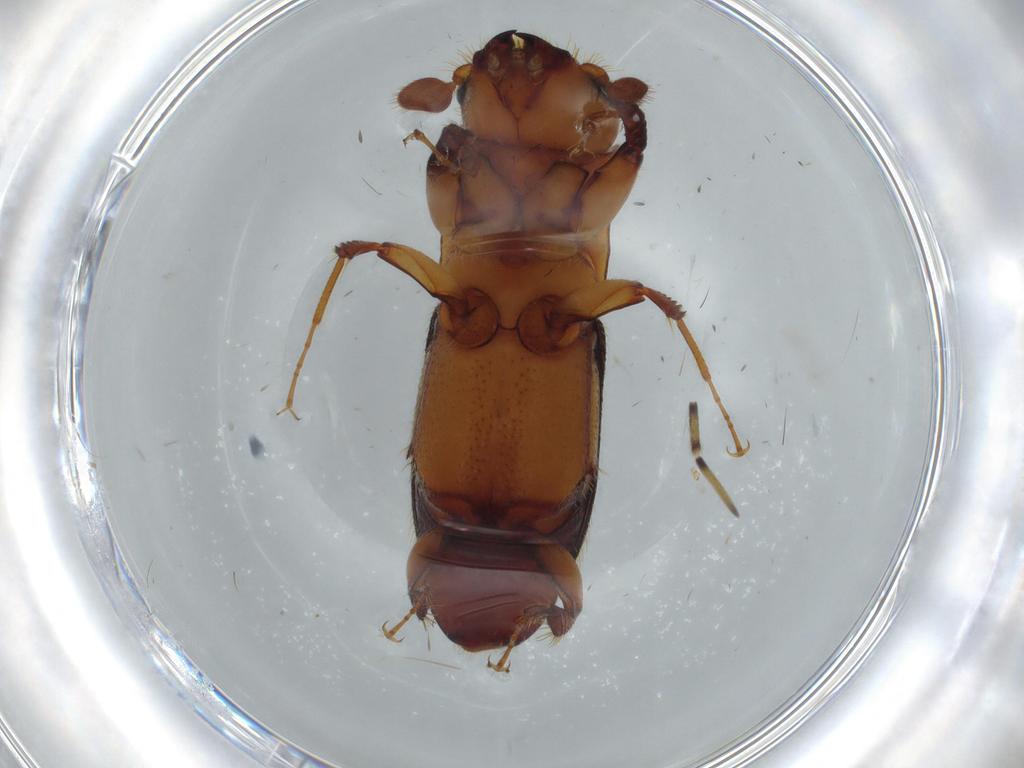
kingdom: Animalia
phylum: Arthropoda
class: Insecta
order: Coleoptera
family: Curculionidae
